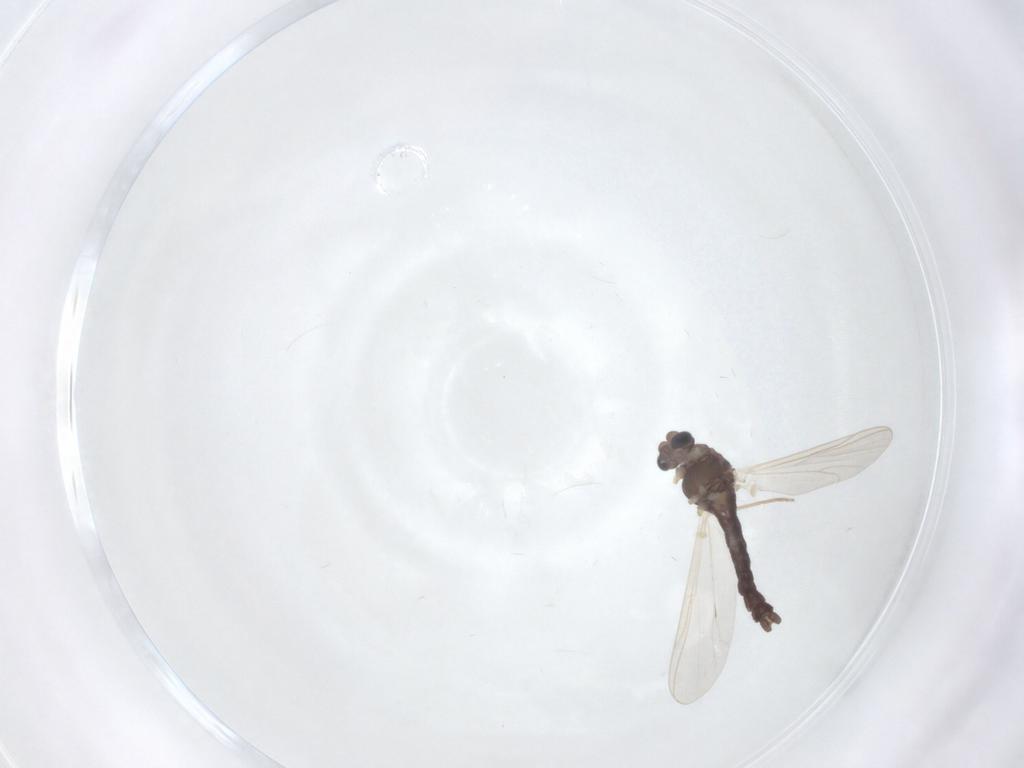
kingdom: Animalia
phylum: Arthropoda
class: Insecta
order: Diptera
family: Chironomidae
